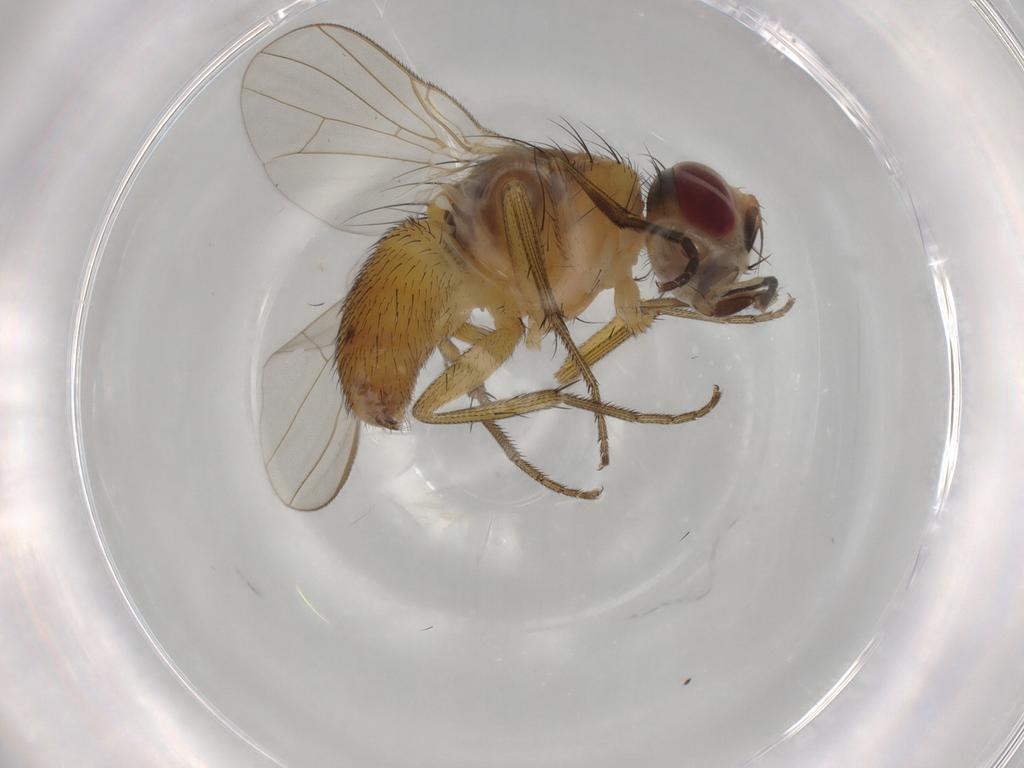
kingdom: Animalia
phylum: Arthropoda
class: Insecta
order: Diptera
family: Muscidae
